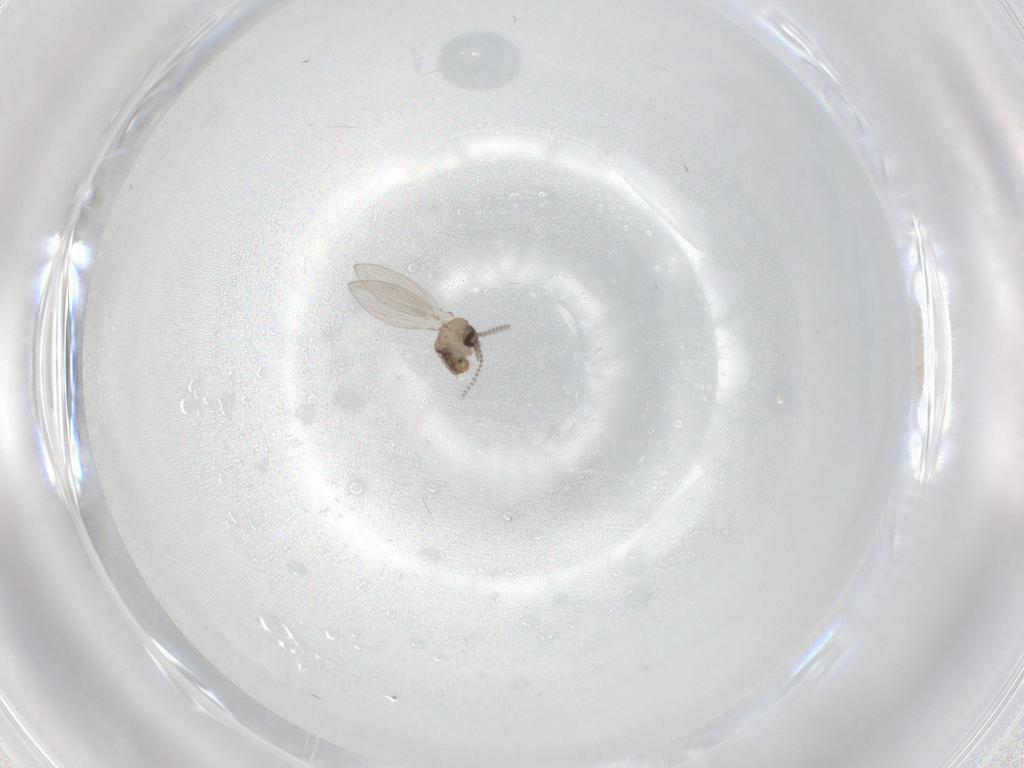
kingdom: Animalia
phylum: Arthropoda
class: Insecta
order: Diptera
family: Psychodidae
